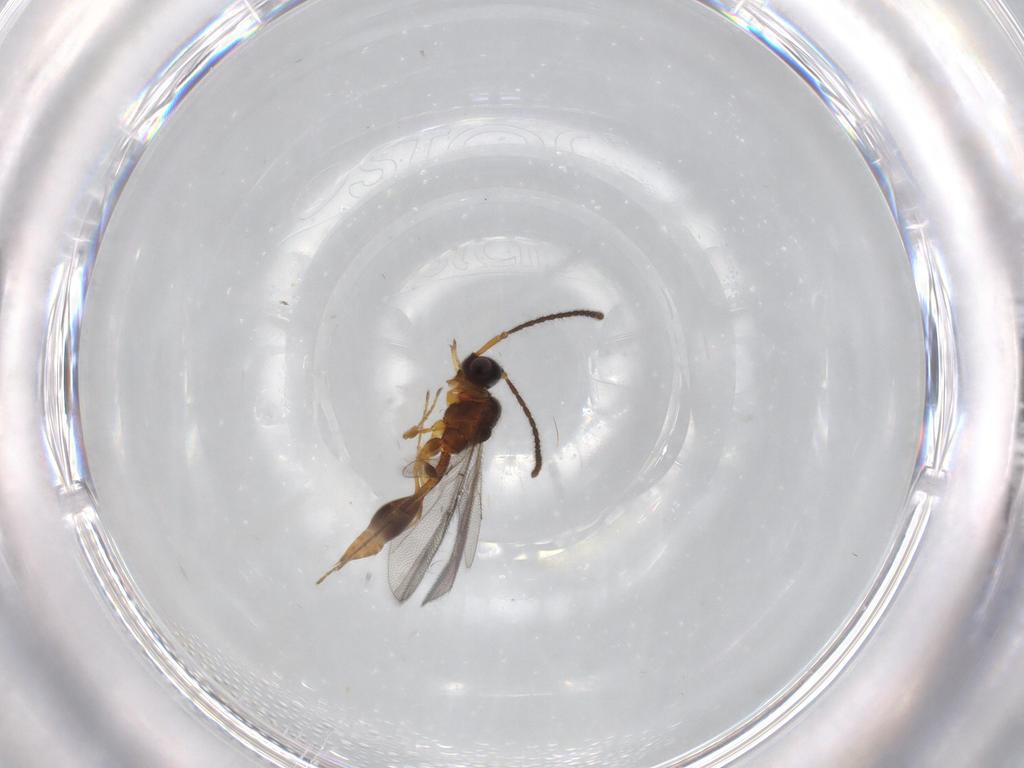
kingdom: Animalia
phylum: Arthropoda
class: Insecta
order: Hymenoptera
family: Diapriidae
